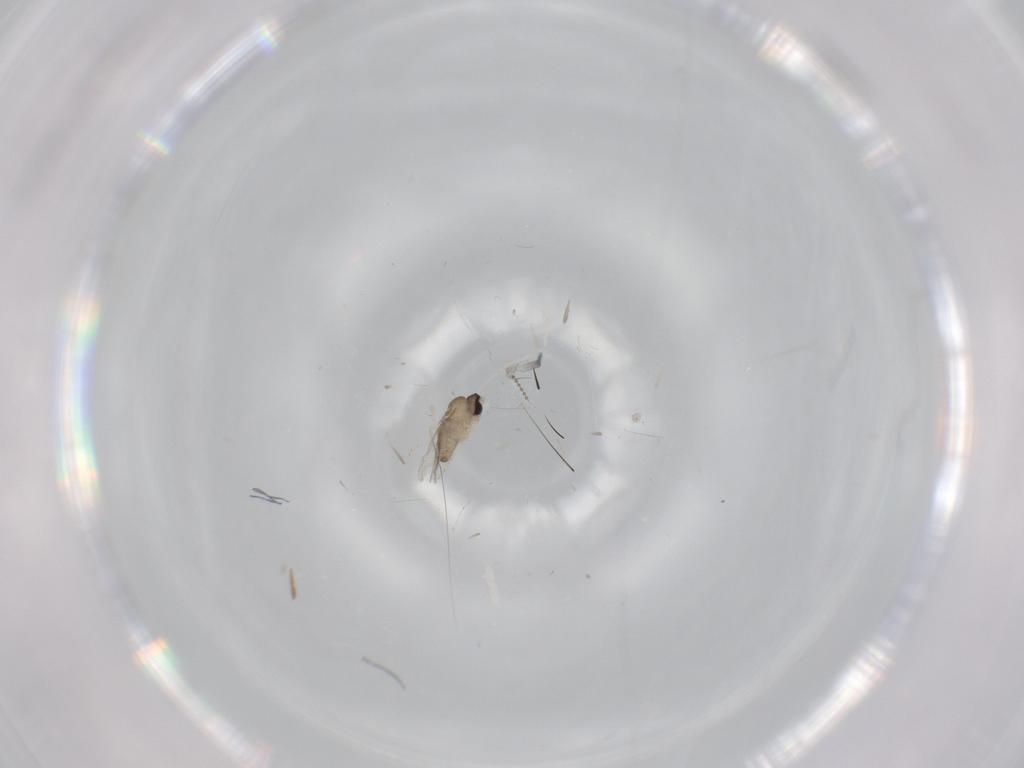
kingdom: Animalia
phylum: Arthropoda
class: Insecta
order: Diptera
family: Cecidomyiidae
